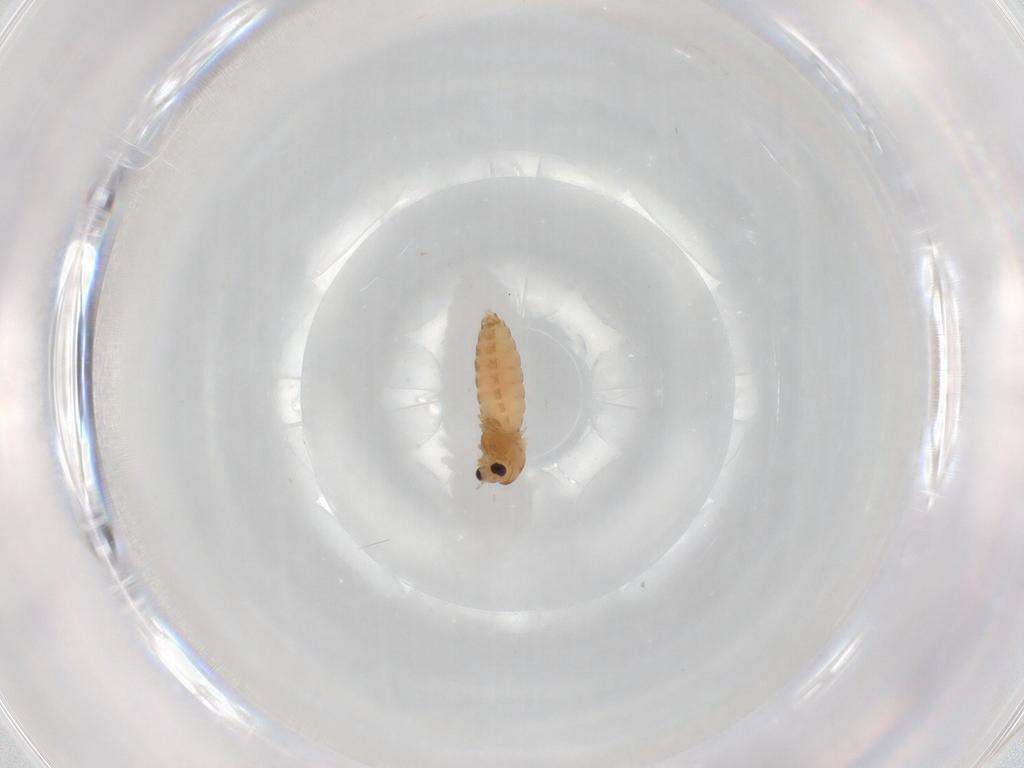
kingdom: Animalia
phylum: Arthropoda
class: Insecta
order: Diptera
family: Chironomidae
